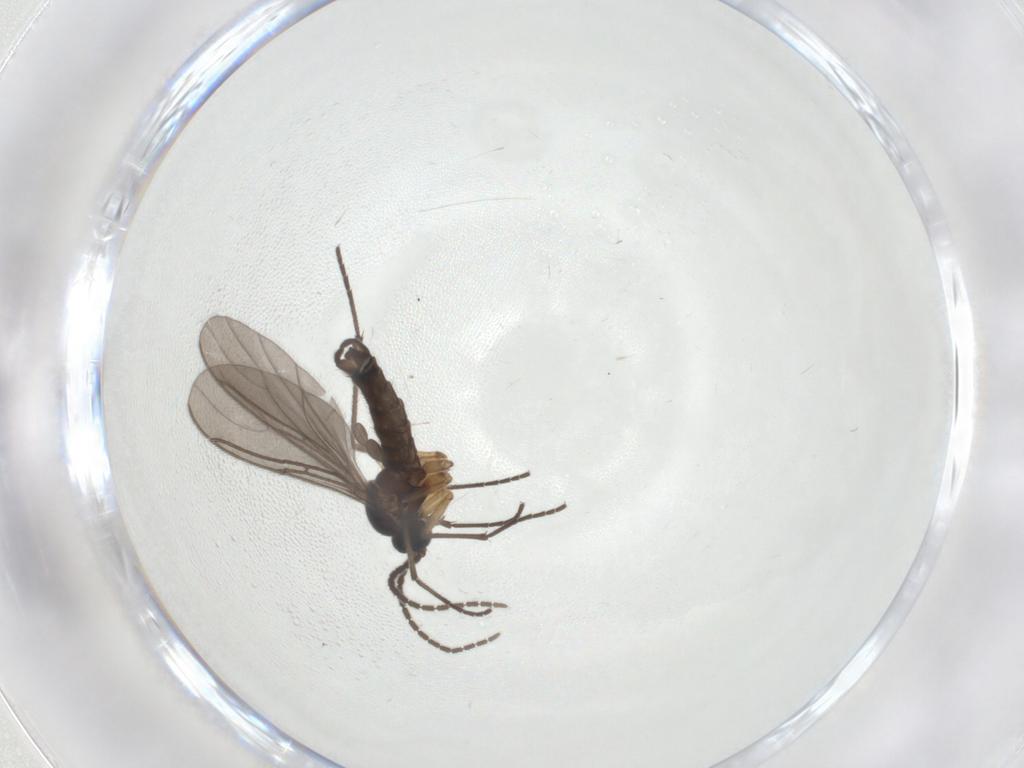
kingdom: Animalia
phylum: Arthropoda
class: Insecta
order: Diptera
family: Sciaridae
